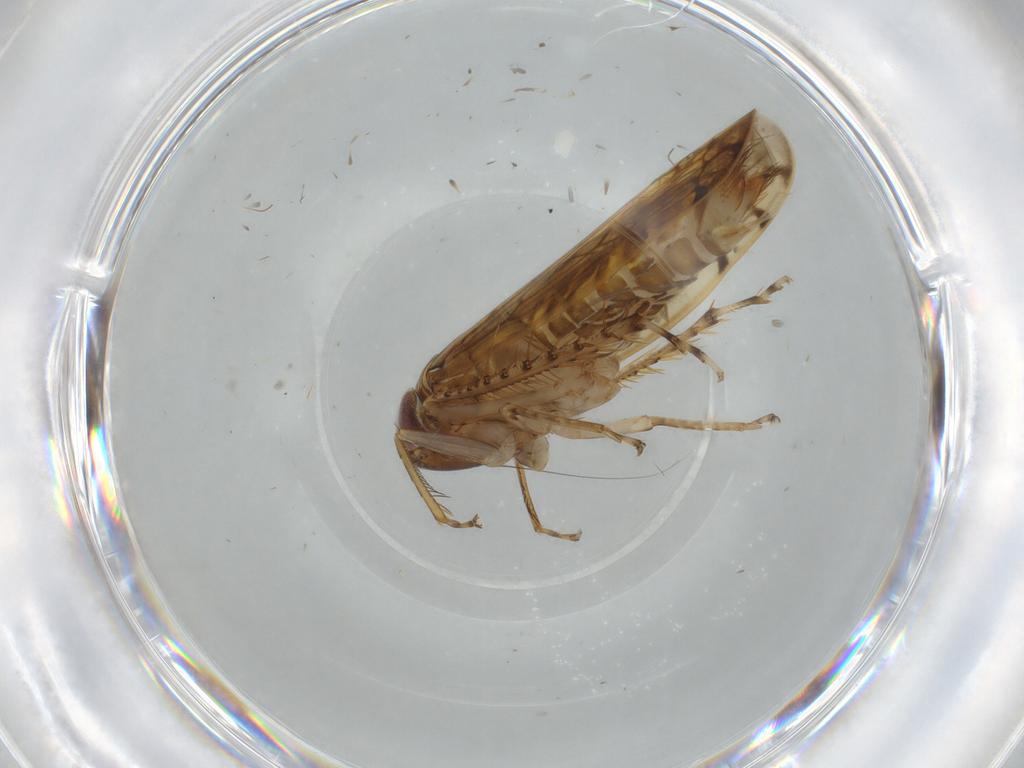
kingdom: Animalia
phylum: Arthropoda
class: Insecta
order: Hemiptera
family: Cicadellidae
